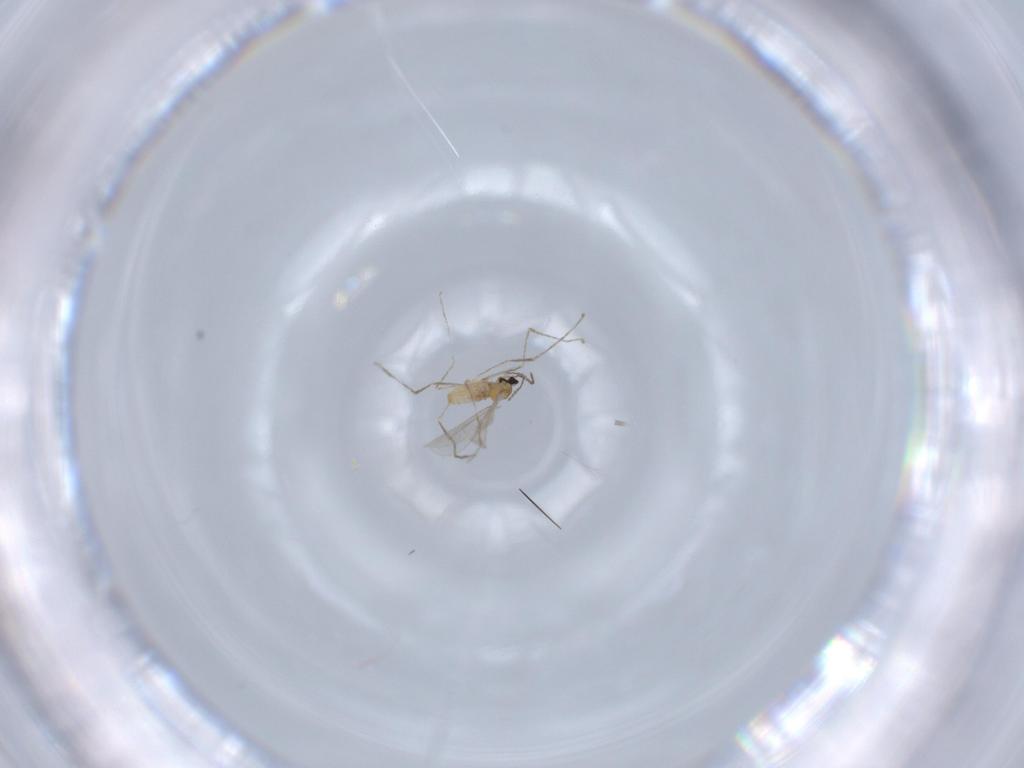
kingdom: Animalia
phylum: Arthropoda
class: Insecta
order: Diptera
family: Cecidomyiidae
